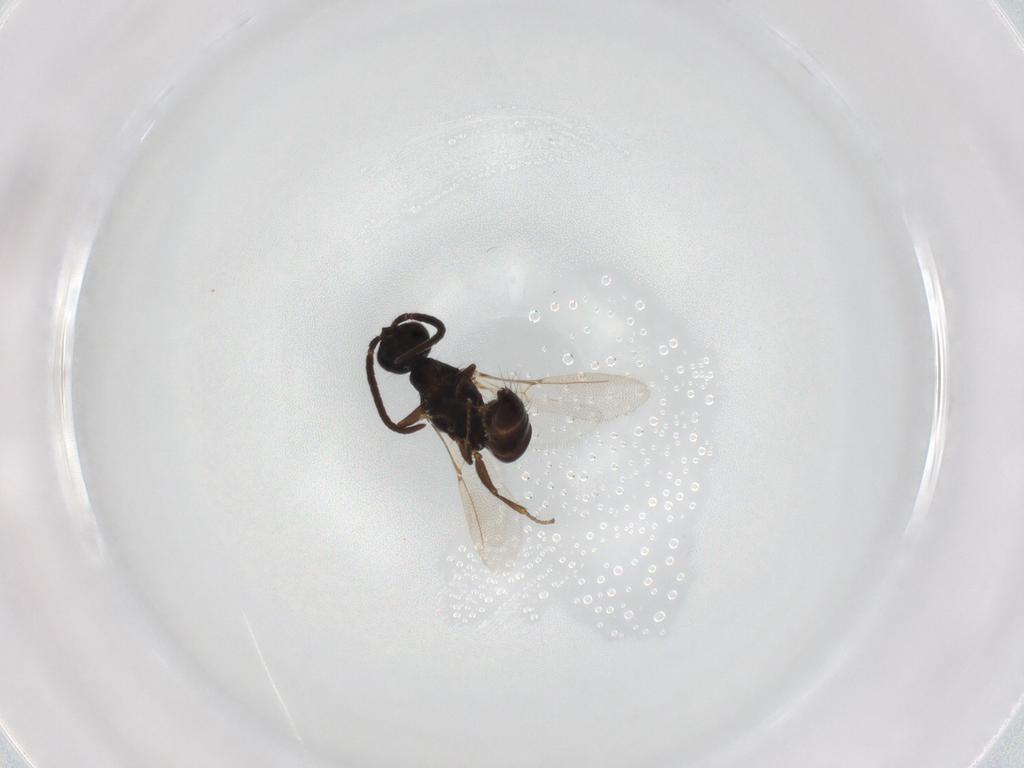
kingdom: Animalia
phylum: Arthropoda
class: Insecta
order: Hymenoptera
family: Bethylidae
